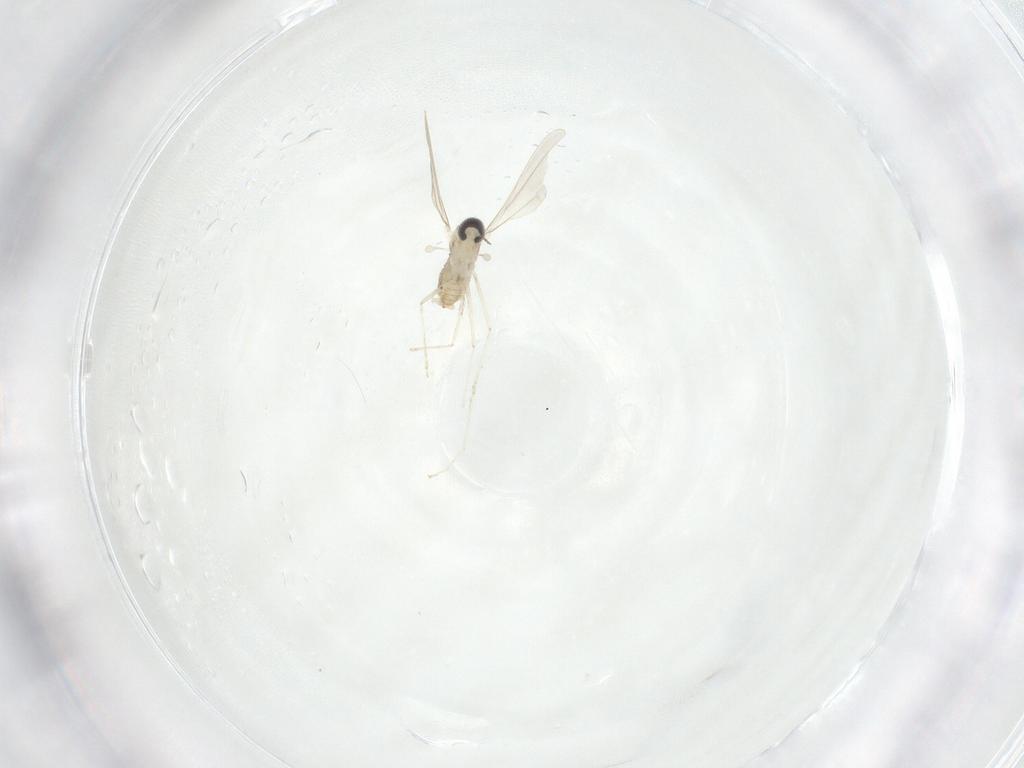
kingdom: Animalia
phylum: Arthropoda
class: Insecta
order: Diptera
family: Cecidomyiidae
